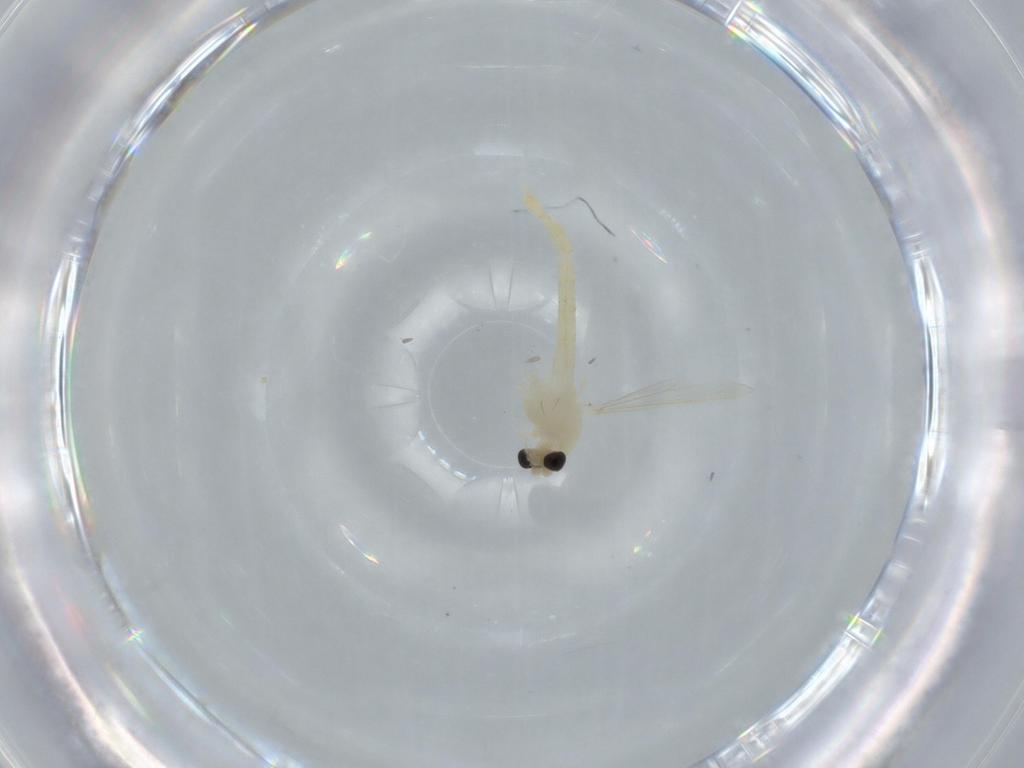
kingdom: Animalia
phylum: Arthropoda
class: Insecta
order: Diptera
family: Chironomidae
